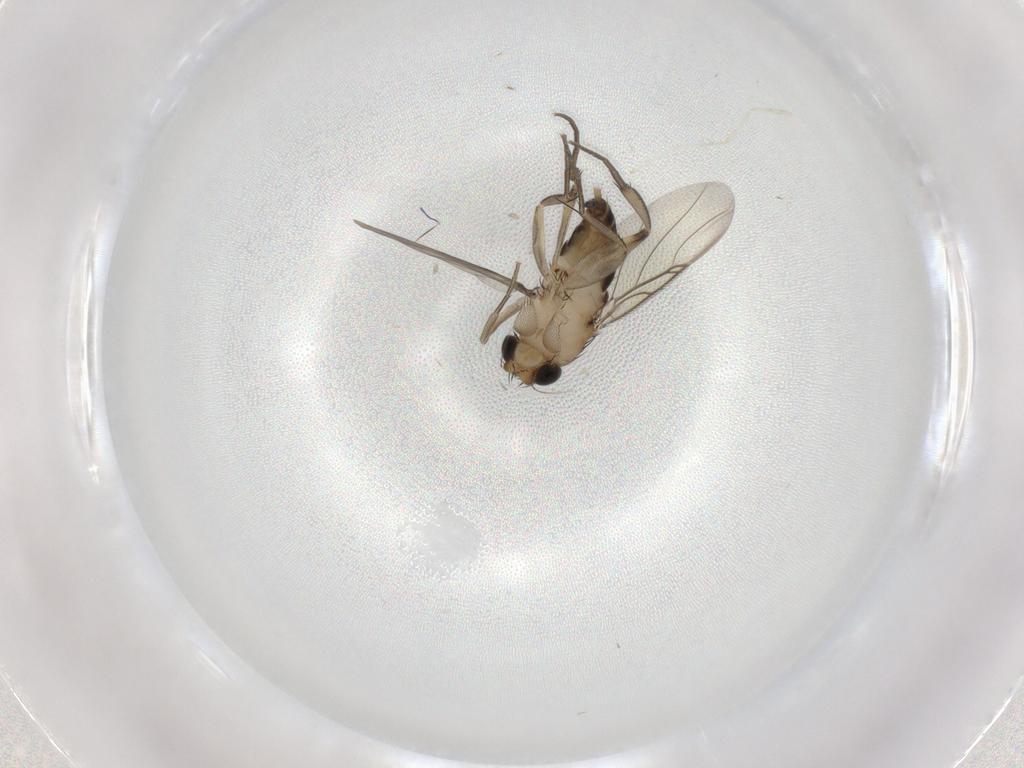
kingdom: Animalia
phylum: Arthropoda
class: Insecta
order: Diptera
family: Phoridae
